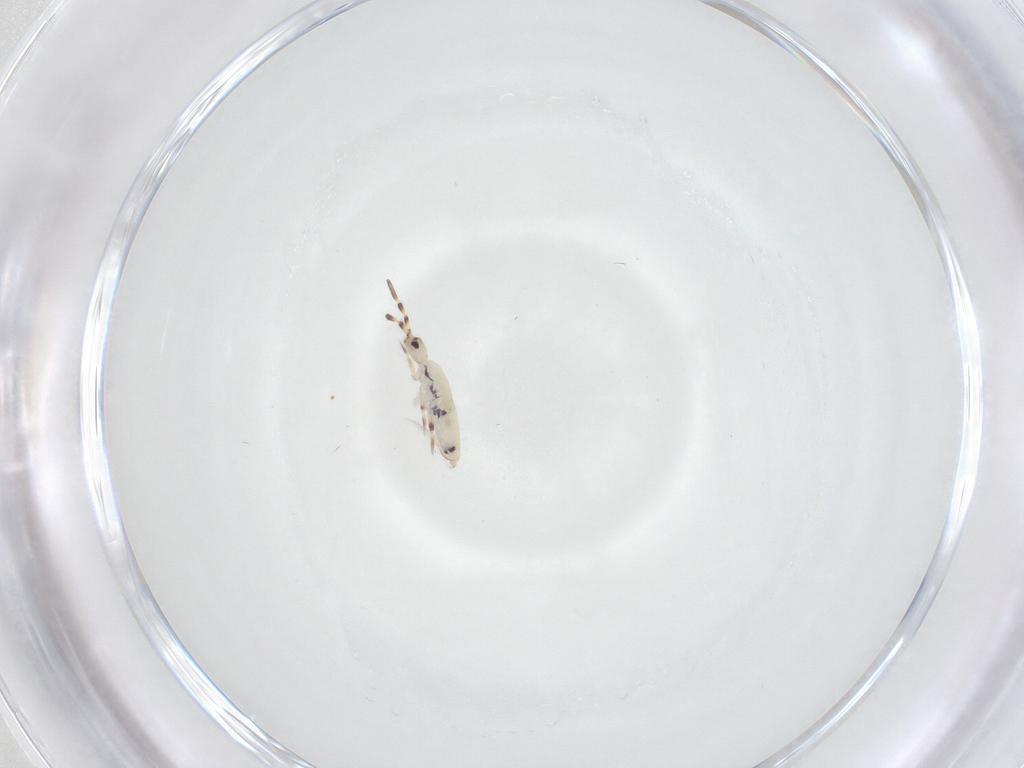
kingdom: Animalia
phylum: Arthropoda
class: Collembola
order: Entomobryomorpha
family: Entomobryidae
